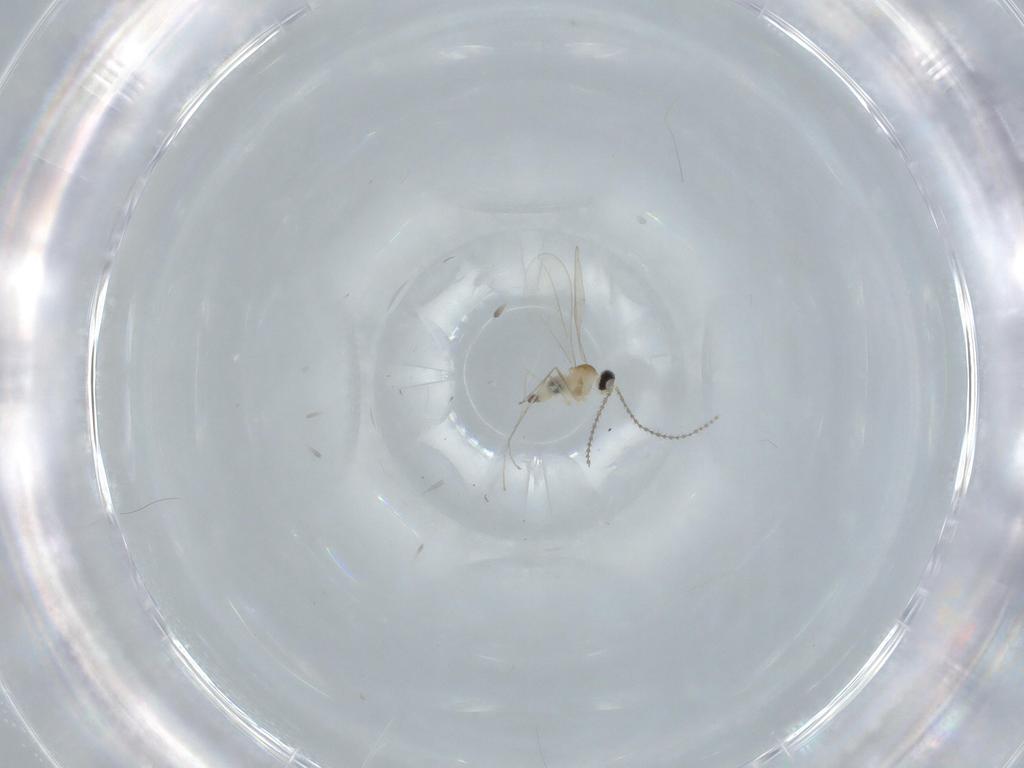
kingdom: Animalia
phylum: Arthropoda
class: Insecta
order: Diptera
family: Cecidomyiidae
